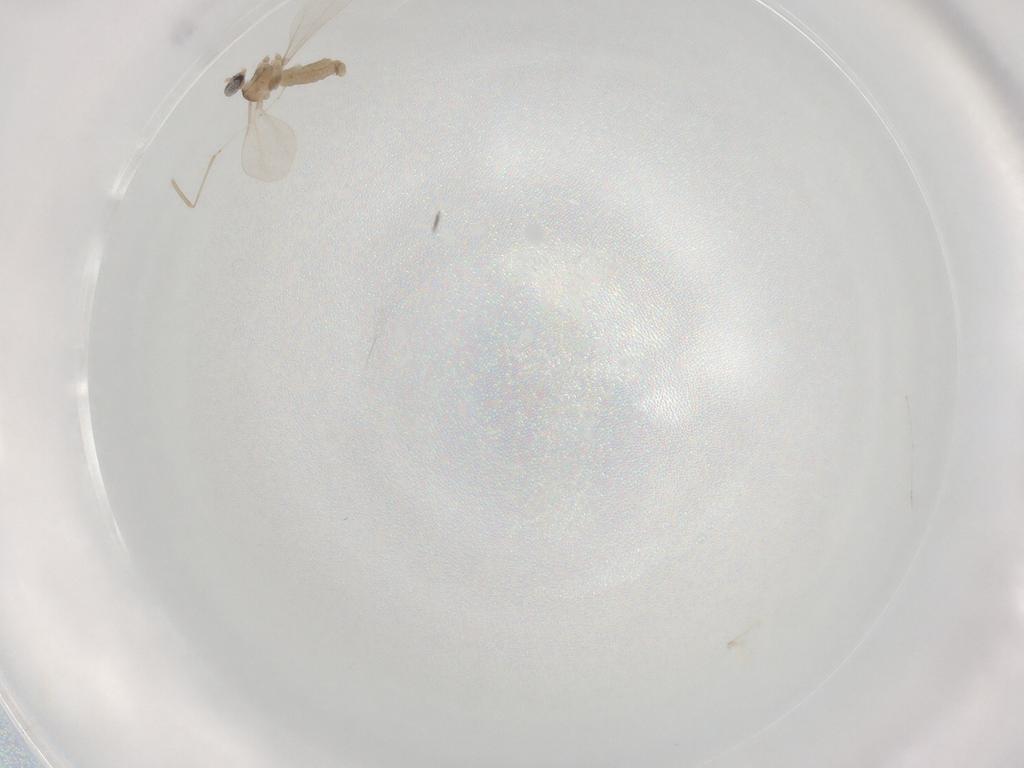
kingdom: Animalia
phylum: Arthropoda
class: Insecta
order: Diptera
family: Cecidomyiidae
